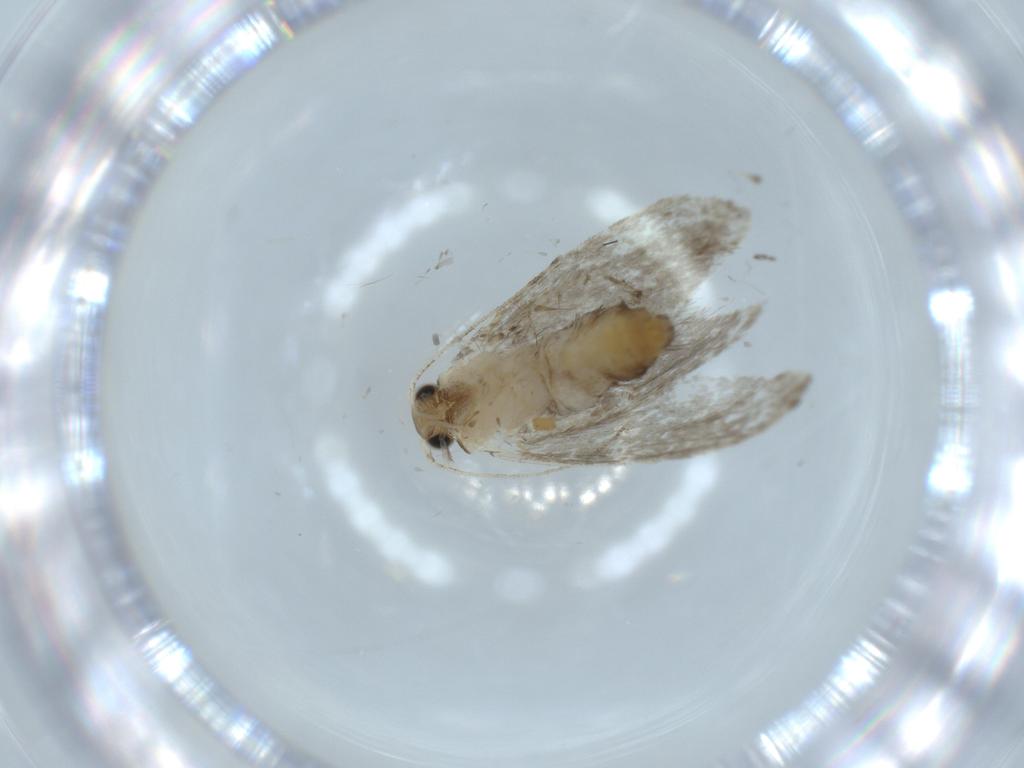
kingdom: Animalia
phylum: Arthropoda
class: Insecta
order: Lepidoptera
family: Tineidae
